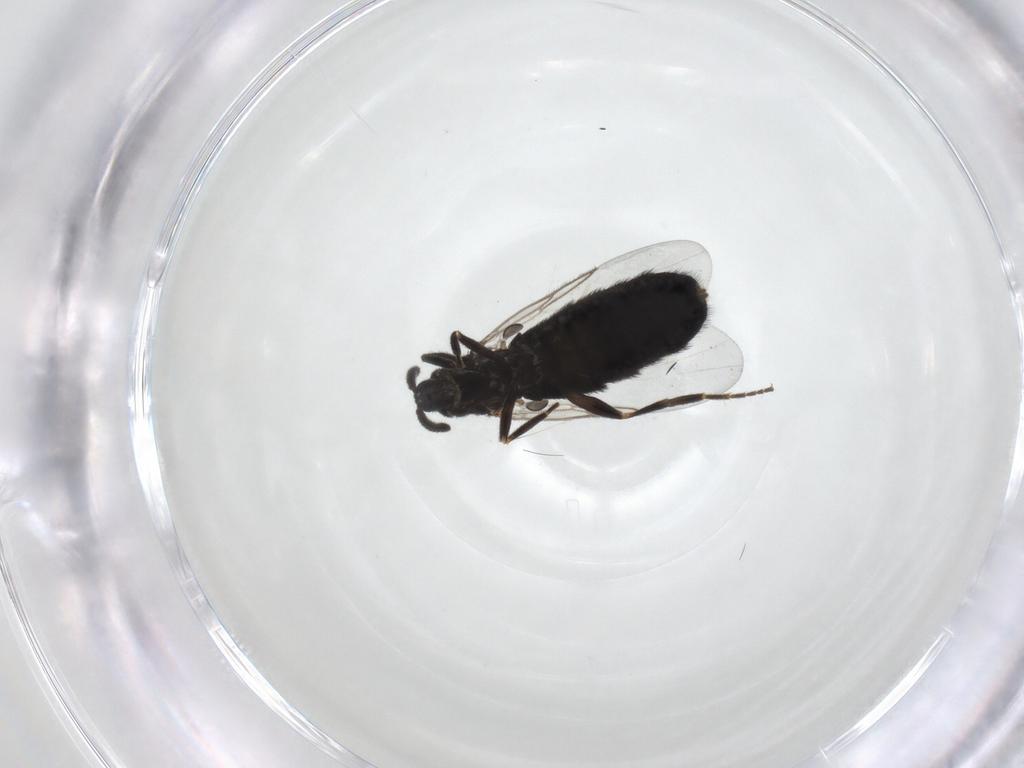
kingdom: Animalia
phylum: Arthropoda
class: Insecta
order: Diptera
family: Scatopsidae
